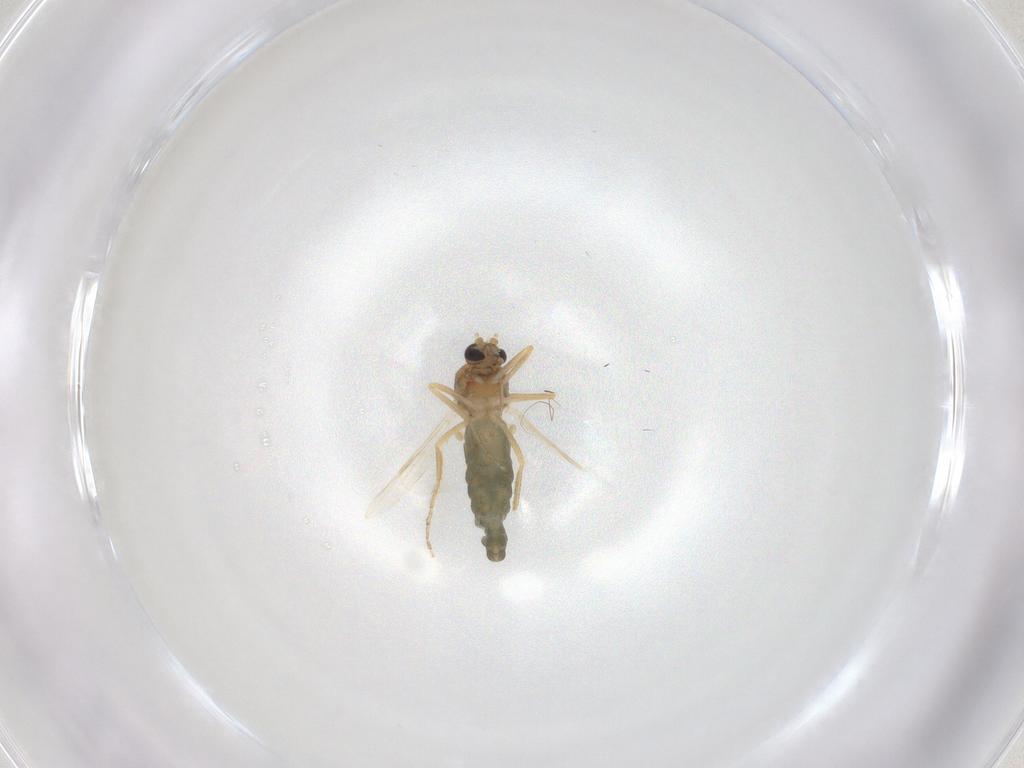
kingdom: Animalia
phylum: Arthropoda
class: Insecta
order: Diptera
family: Ceratopogonidae
